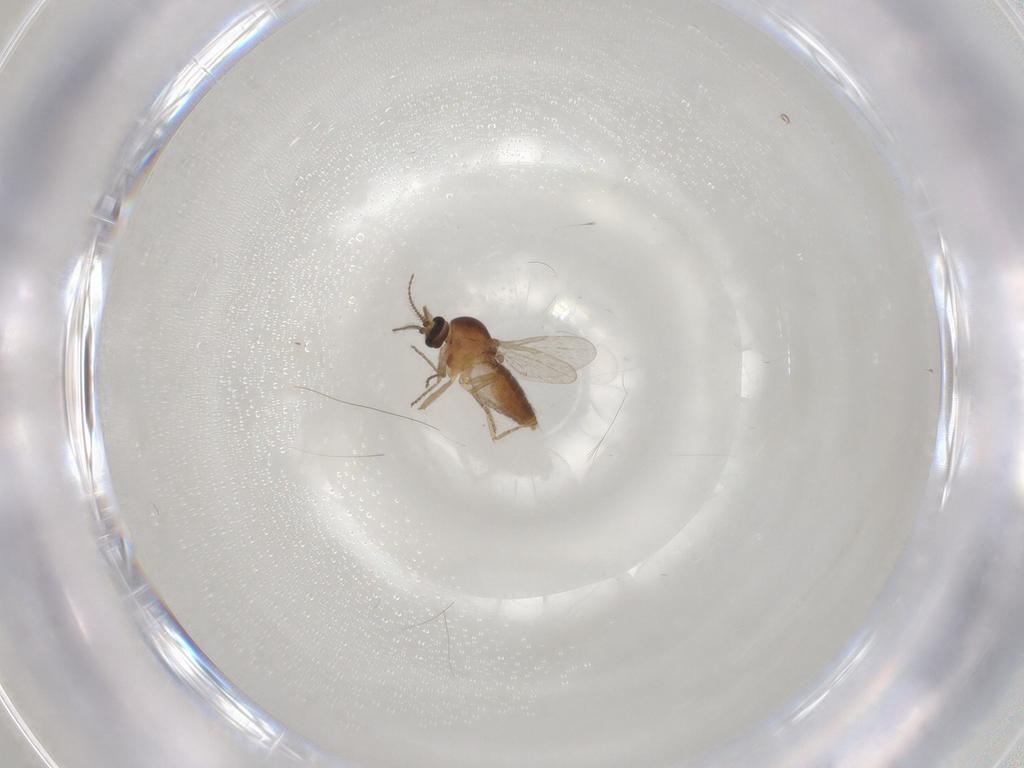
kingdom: Animalia
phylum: Arthropoda
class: Insecta
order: Diptera
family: Ceratopogonidae
